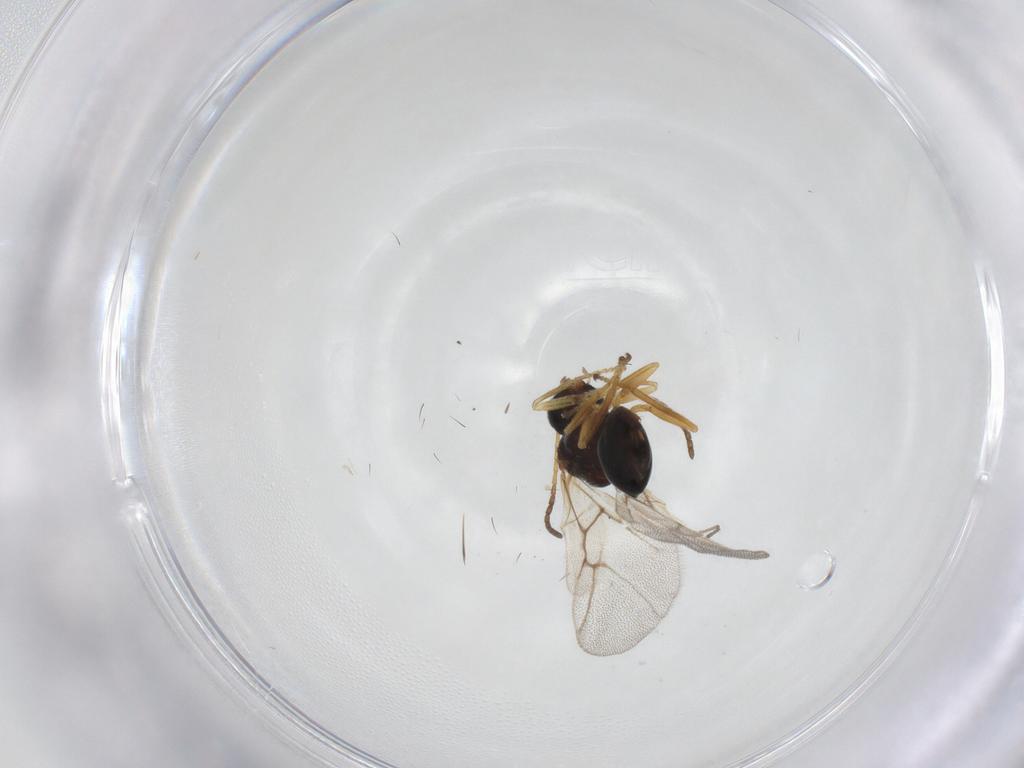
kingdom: Animalia
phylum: Arthropoda
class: Insecta
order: Hymenoptera
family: Cynipidae
